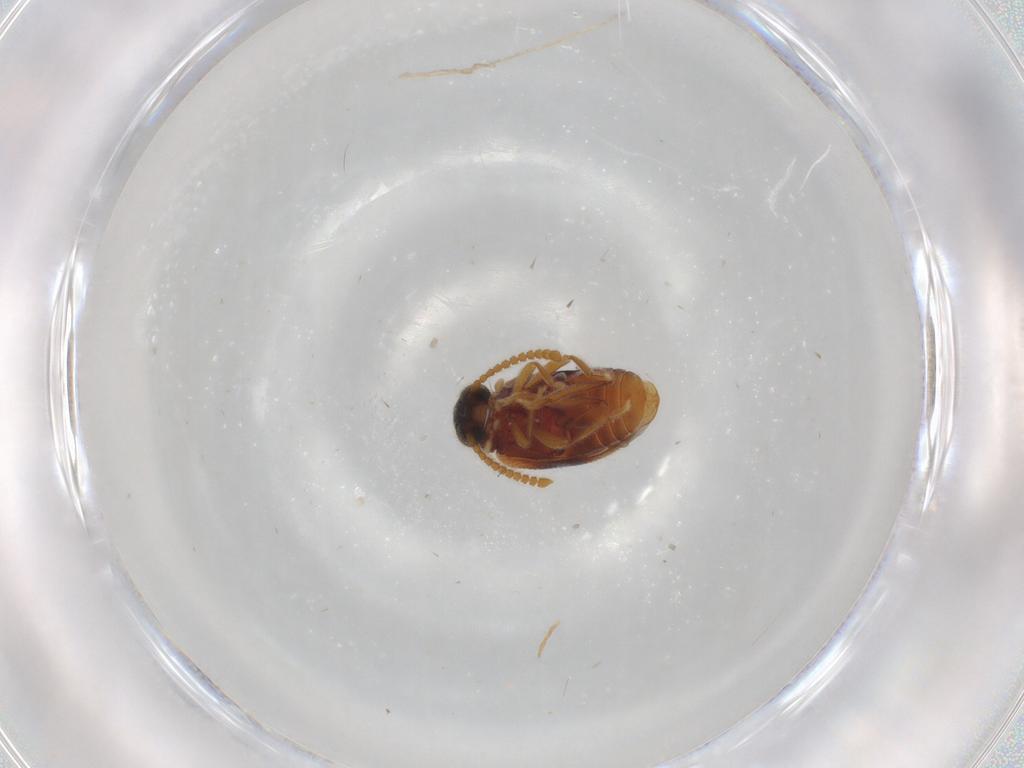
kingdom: Animalia
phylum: Arthropoda
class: Insecta
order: Coleoptera
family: Aderidae
